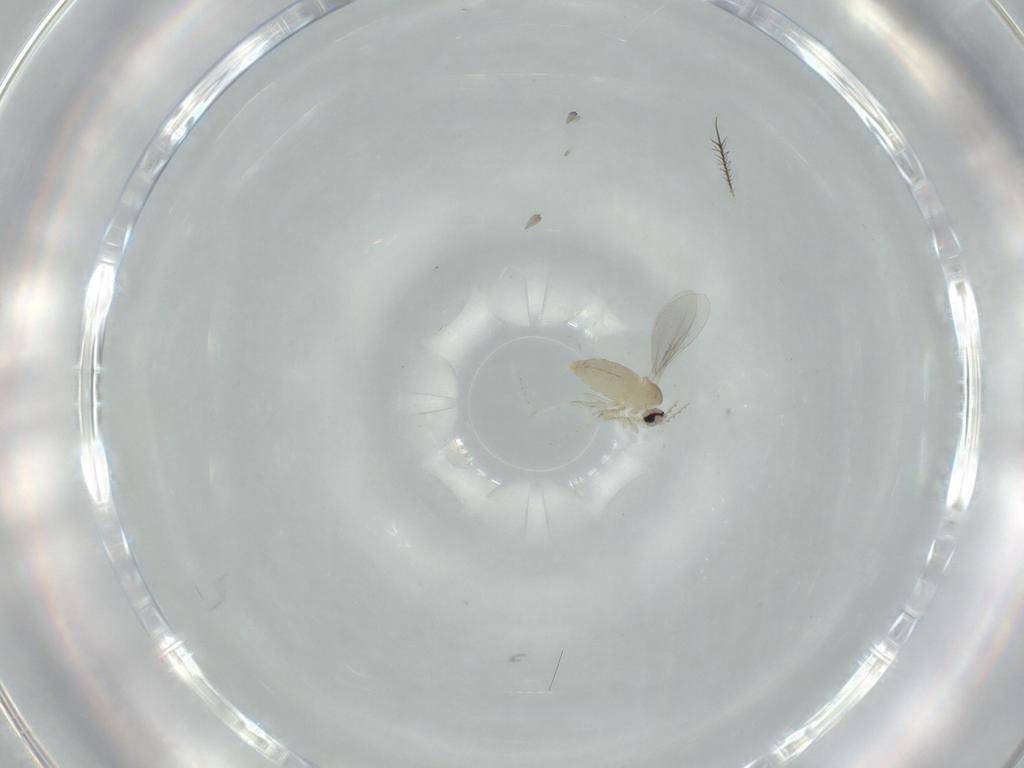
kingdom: Animalia
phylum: Arthropoda
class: Insecta
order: Diptera
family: Cecidomyiidae
